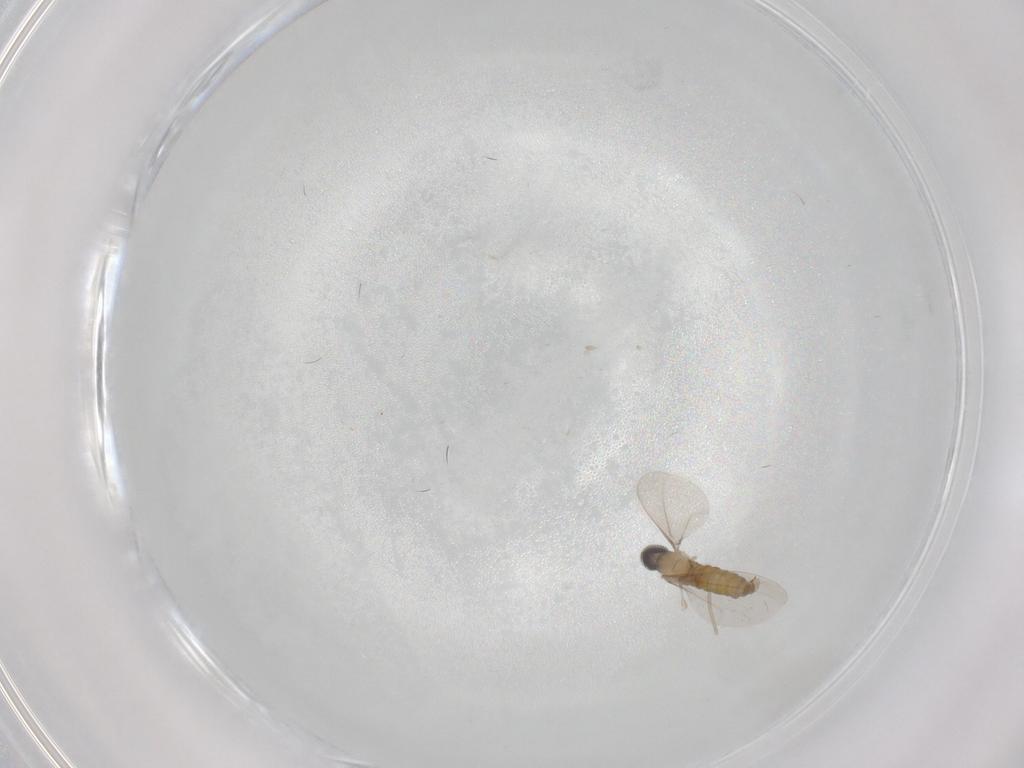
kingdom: Animalia
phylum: Arthropoda
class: Insecta
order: Diptera
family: Cecidomyiidae
